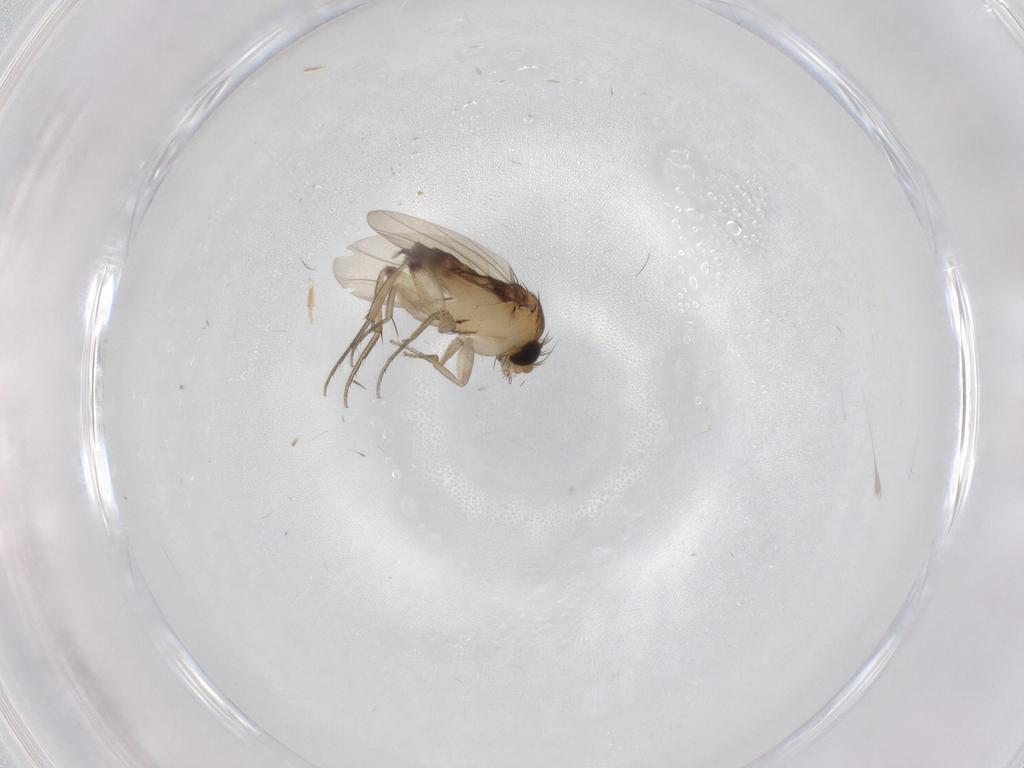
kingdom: Animalia
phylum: Arthropoda
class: Insecta
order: Diptera
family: Phoridae
